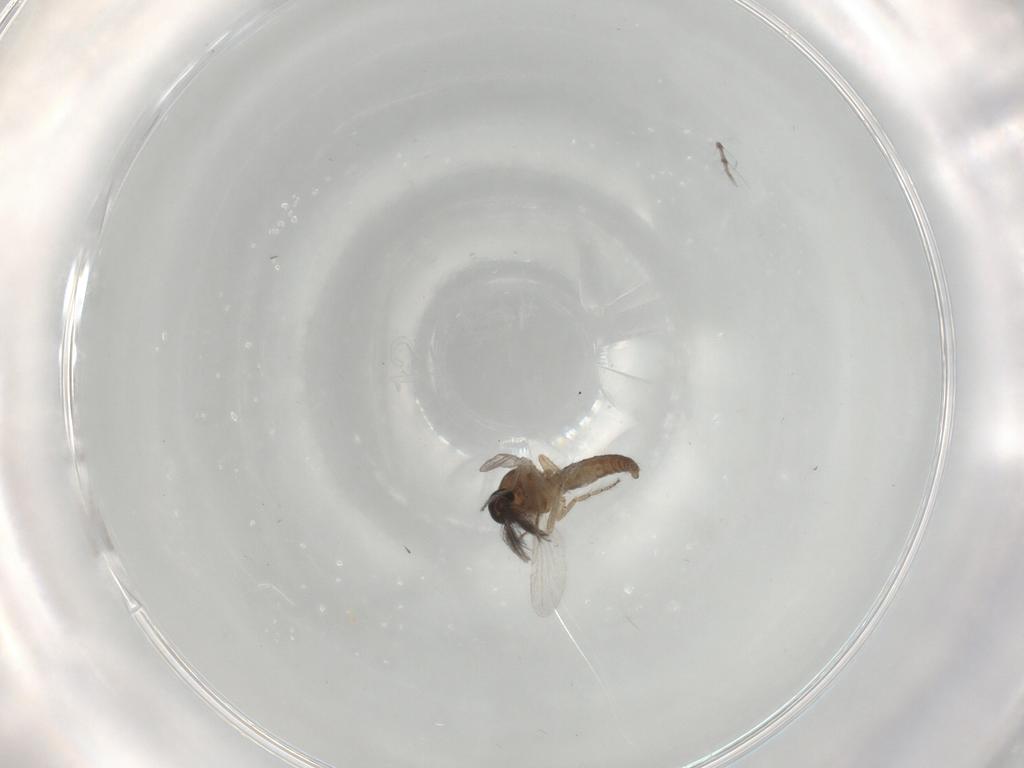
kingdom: Animalia
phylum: Arthropoda
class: Insecta
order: Diptera
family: Chironomidae
